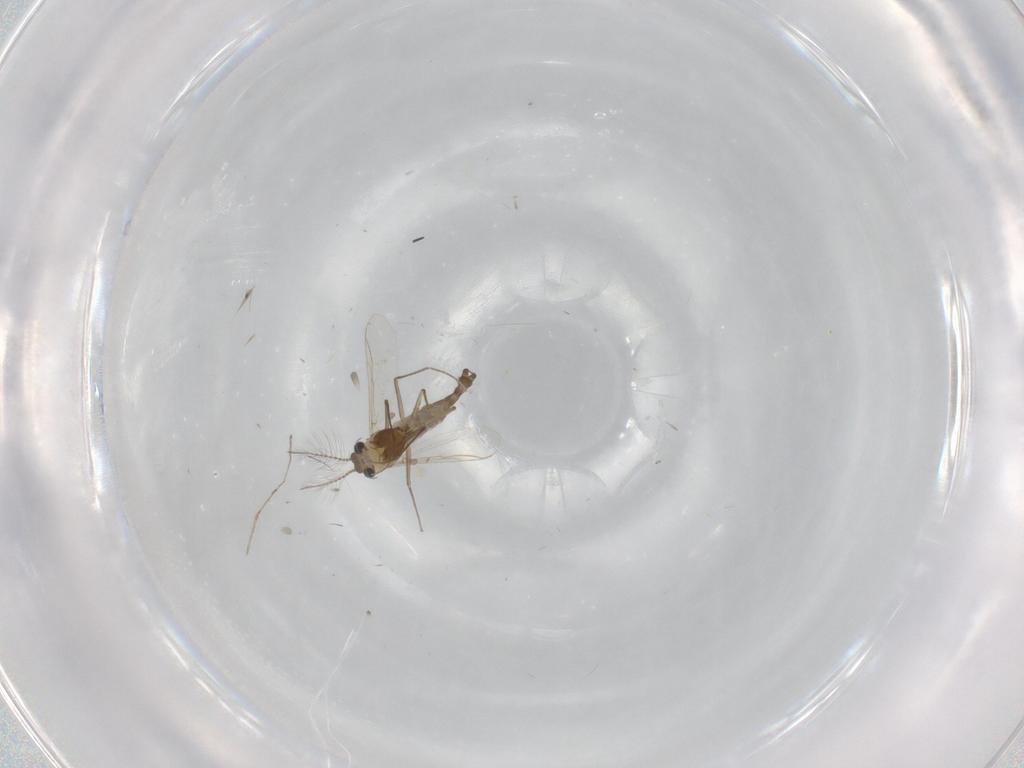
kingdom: Animalia
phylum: Arthropoda
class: Insecta
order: Diptera
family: Chironomidae
